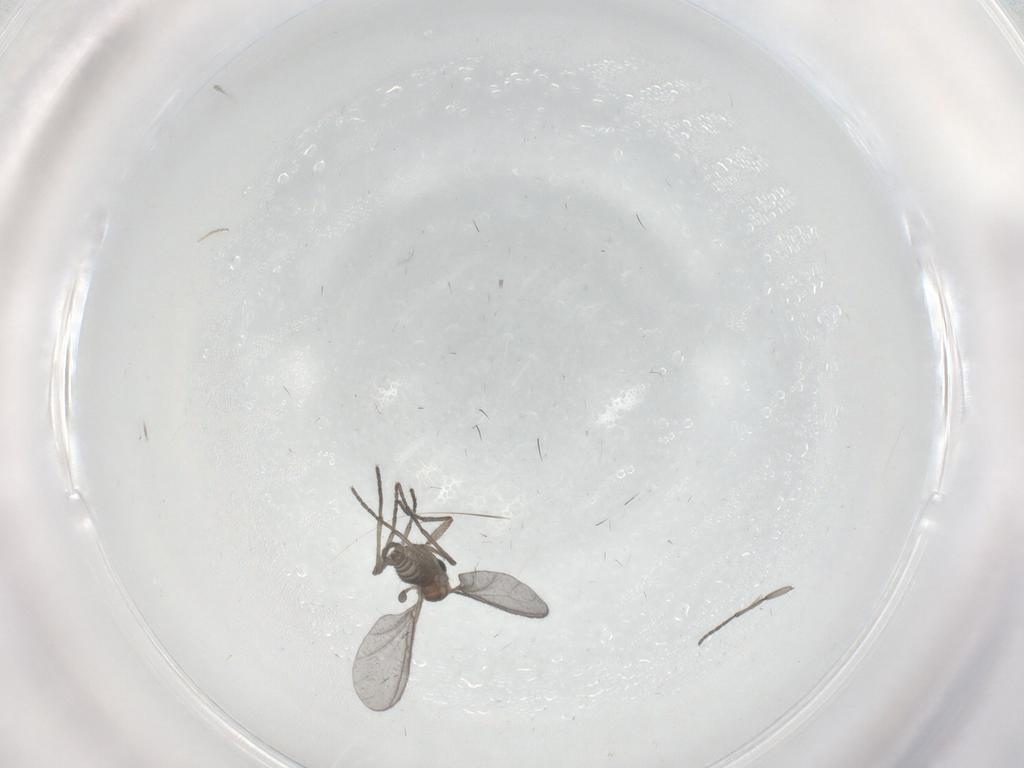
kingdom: Animalia
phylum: Arthropoda
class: Insecta
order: Diptera
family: Sciaridae
